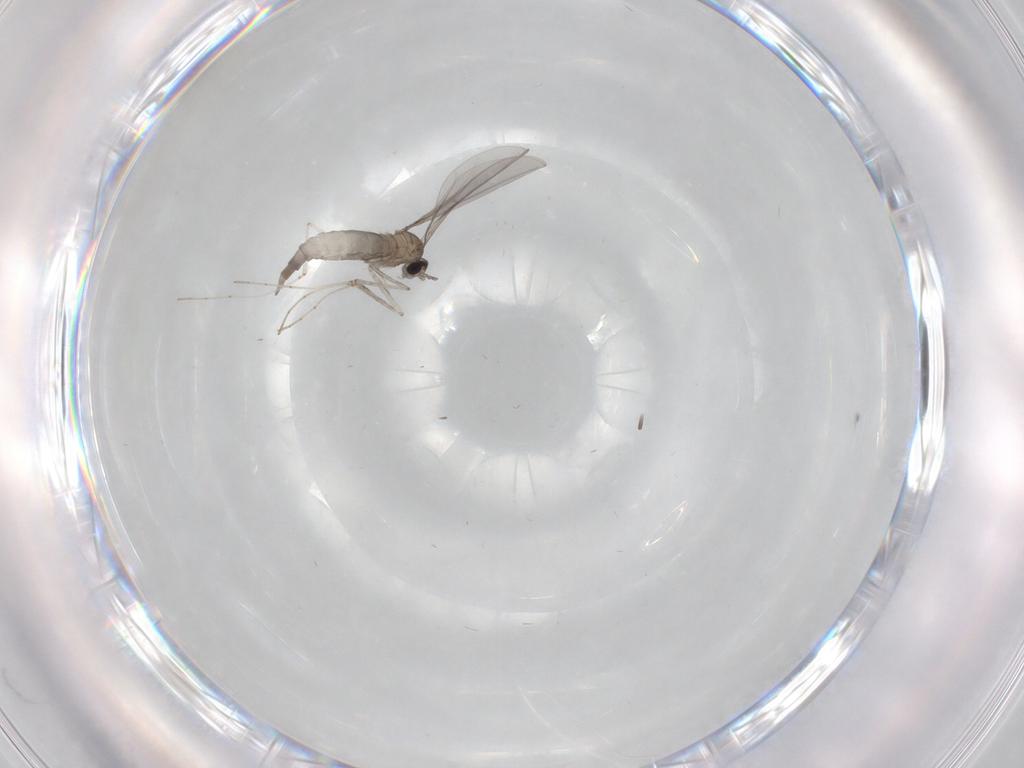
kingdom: Animalia
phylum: Arthropoda
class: Insecta
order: Diptera
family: Cecidomyiidae
